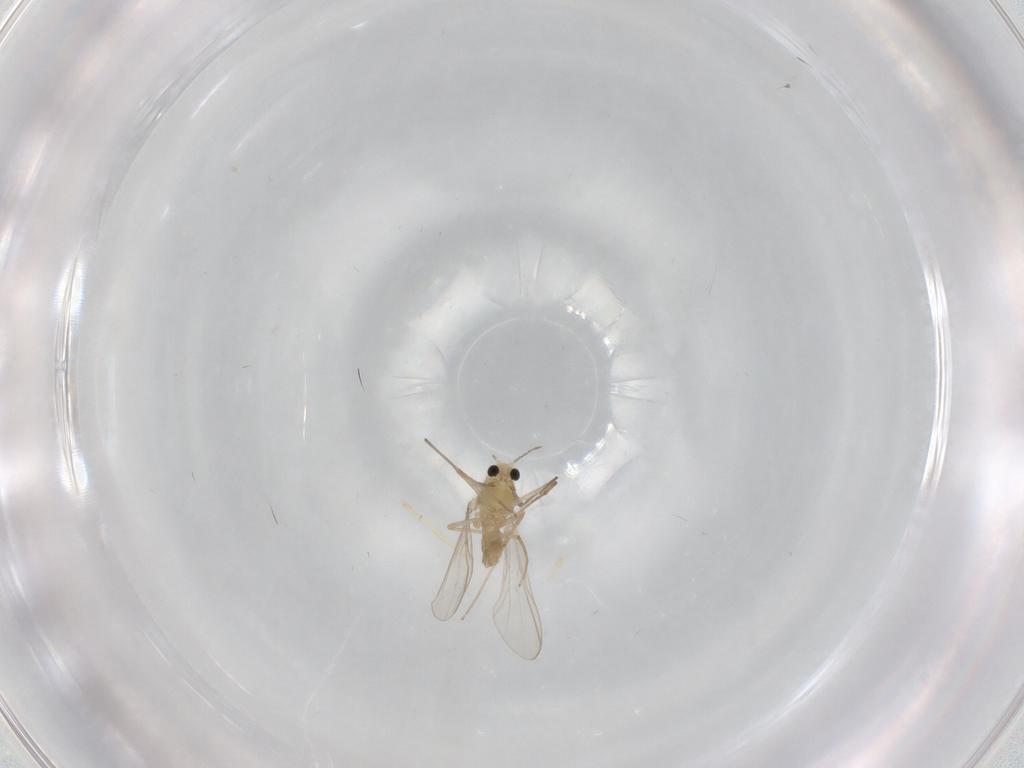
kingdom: Animalia
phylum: Arthropoda
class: Insecta
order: Diptera
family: Chironomidae
